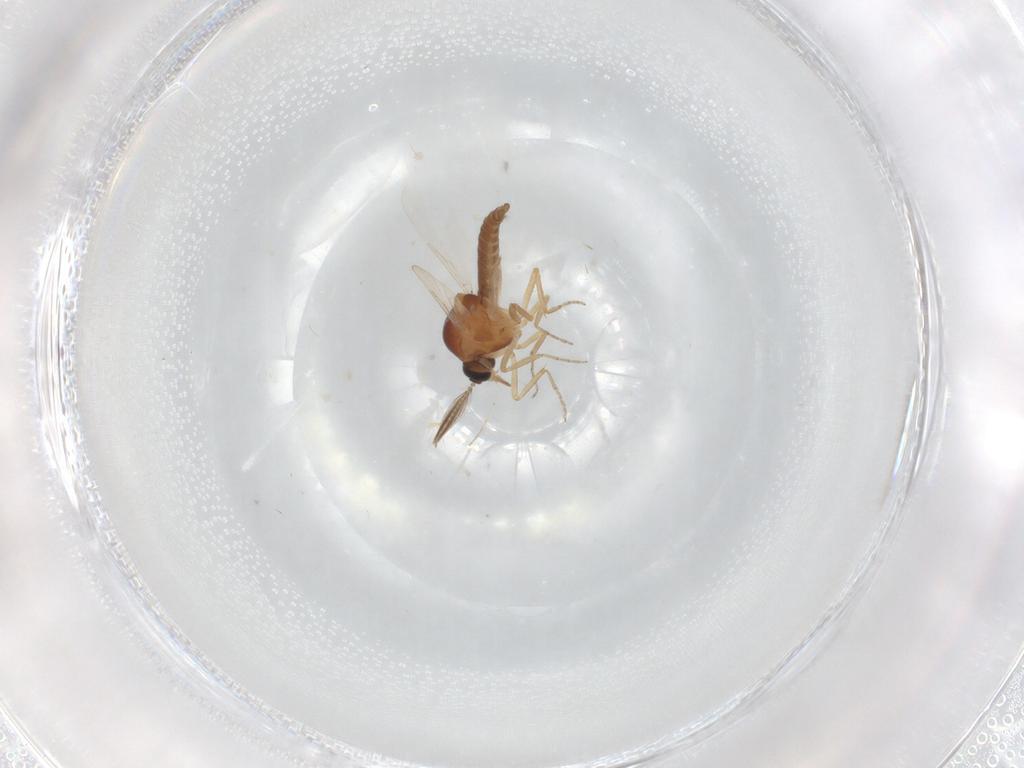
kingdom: Animalia
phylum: Arthropoda
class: Insecta
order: Diptera
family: Ceratopogonidae
